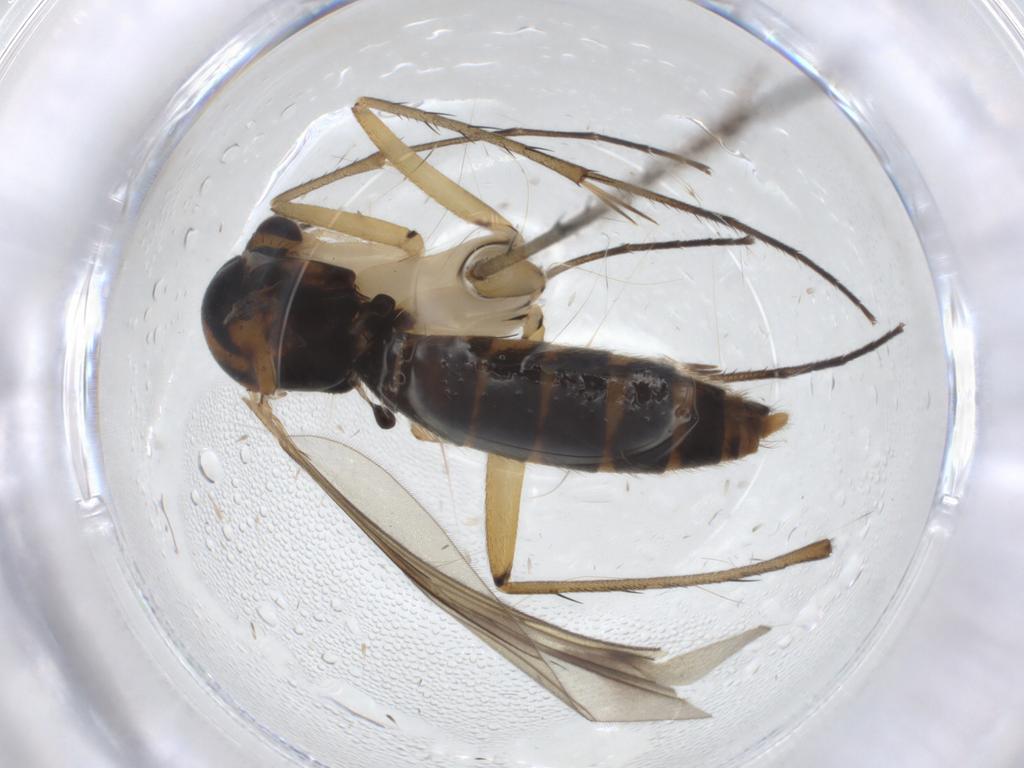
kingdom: Animalia
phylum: Arthropoda
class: Insecta
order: Diptera
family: Mycetophilidae
